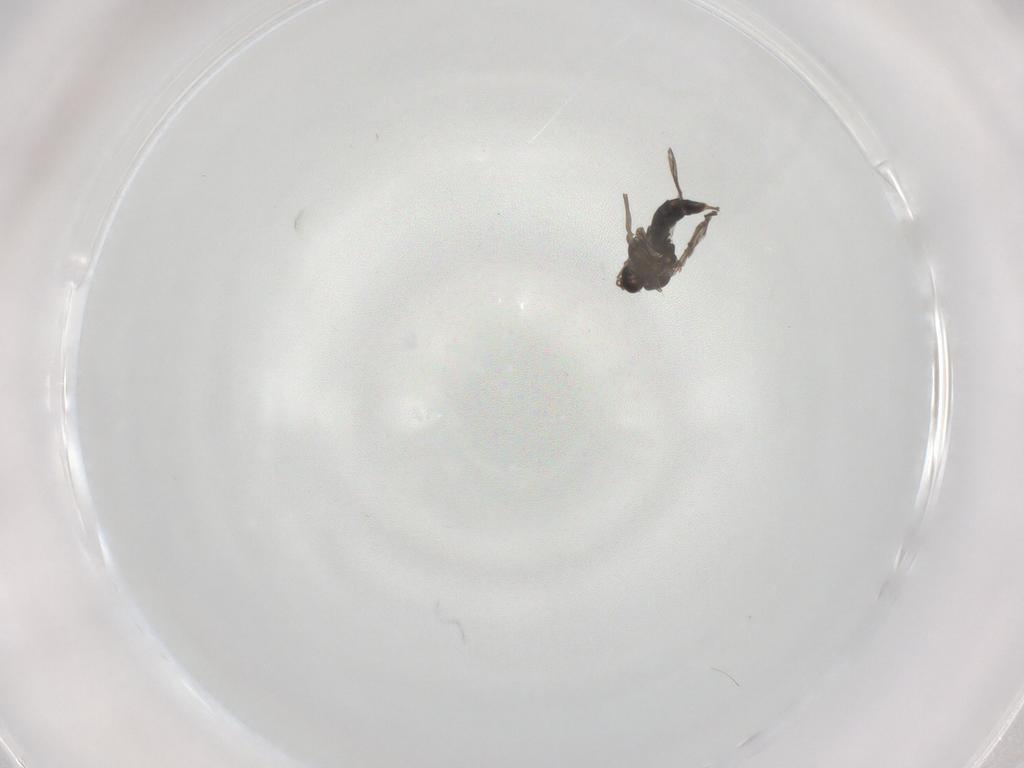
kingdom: Animalia
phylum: Arthropoda
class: Insecta
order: Diptera
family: Chironomidae
